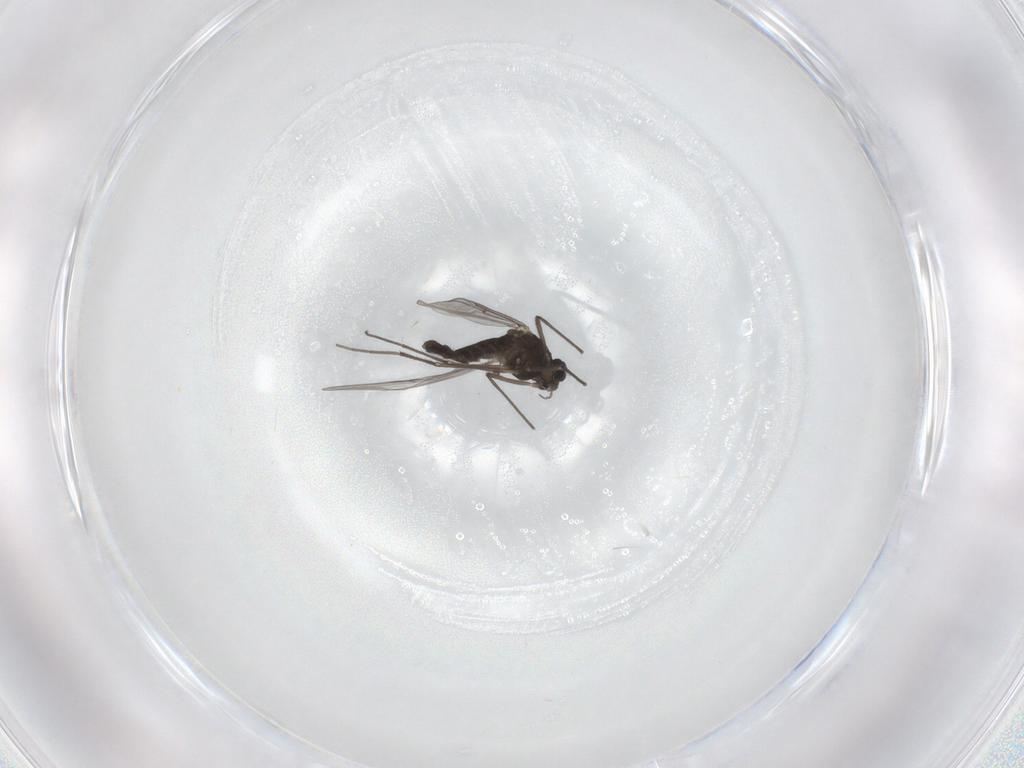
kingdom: Animalia
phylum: Arthropoda
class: Insecta
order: Diptera
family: Chironomidae
